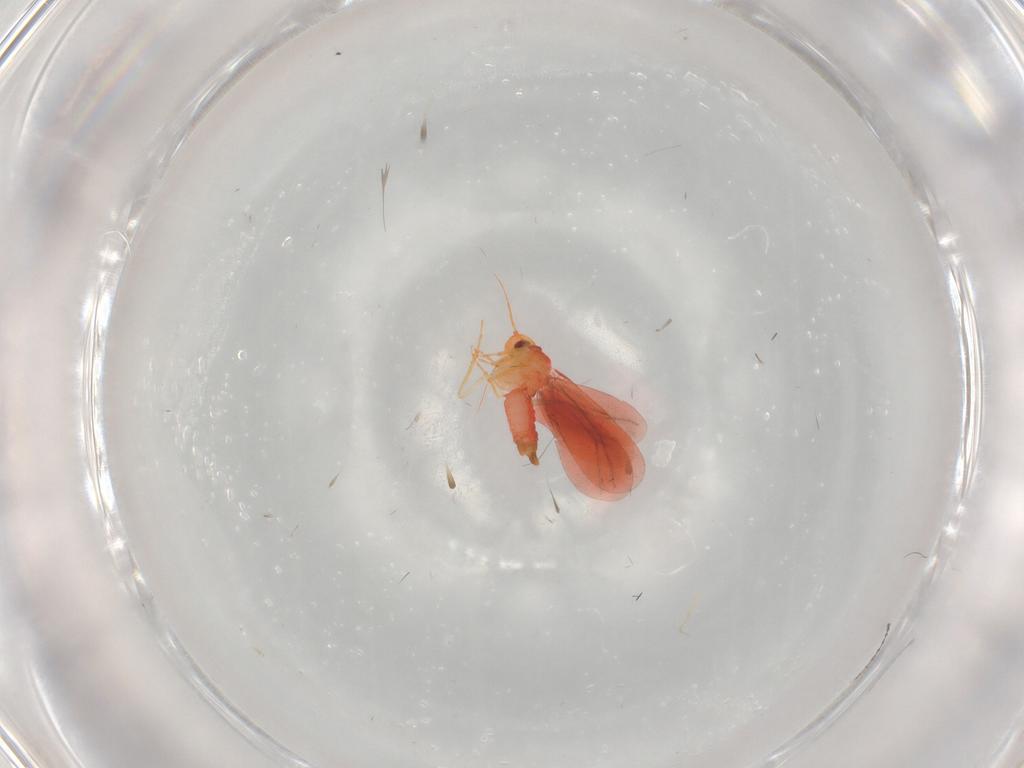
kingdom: Animalia
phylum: Arthropoda
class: Insecta
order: Hemiptera
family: Aleyrodidae
